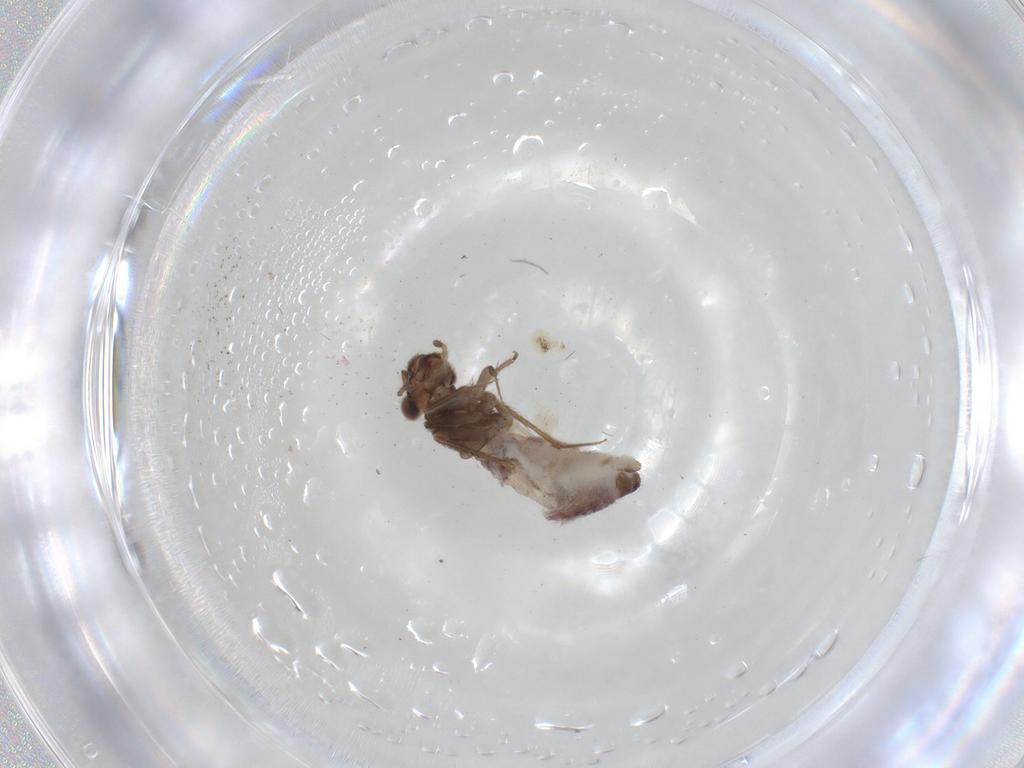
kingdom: Animalia
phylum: Arthropoda
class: Insecta
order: Psocodea
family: Lepidopsocidae
